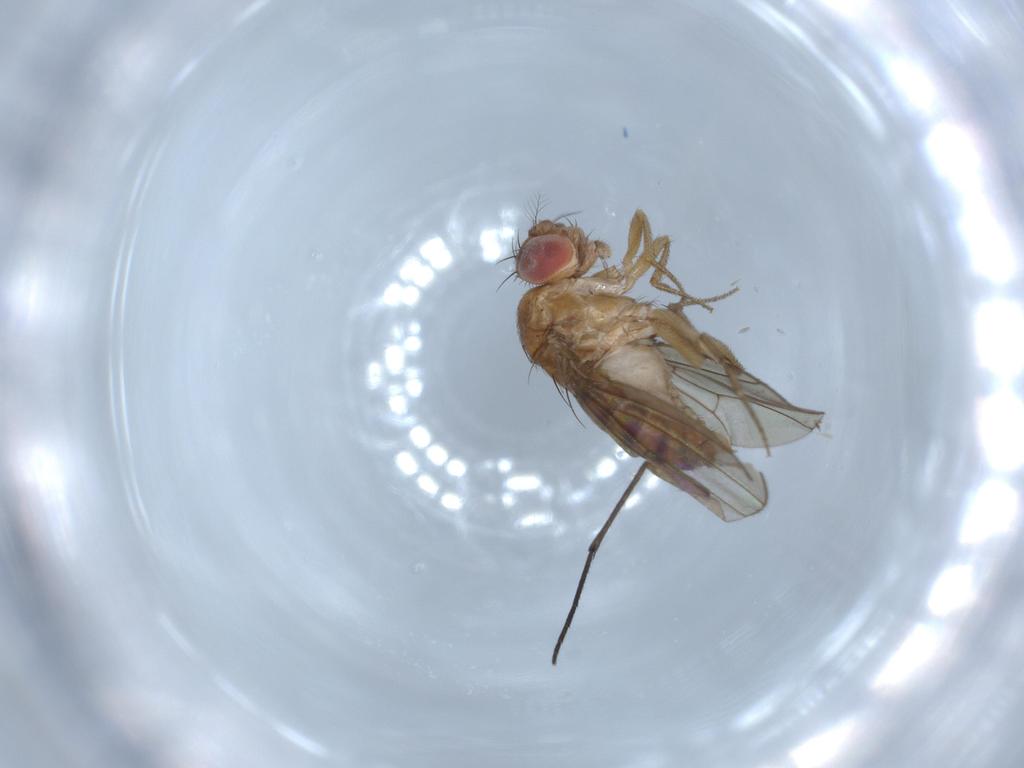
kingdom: Animalia
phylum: Arthropoda
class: Insecta
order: Diptera
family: Drosophilidae
